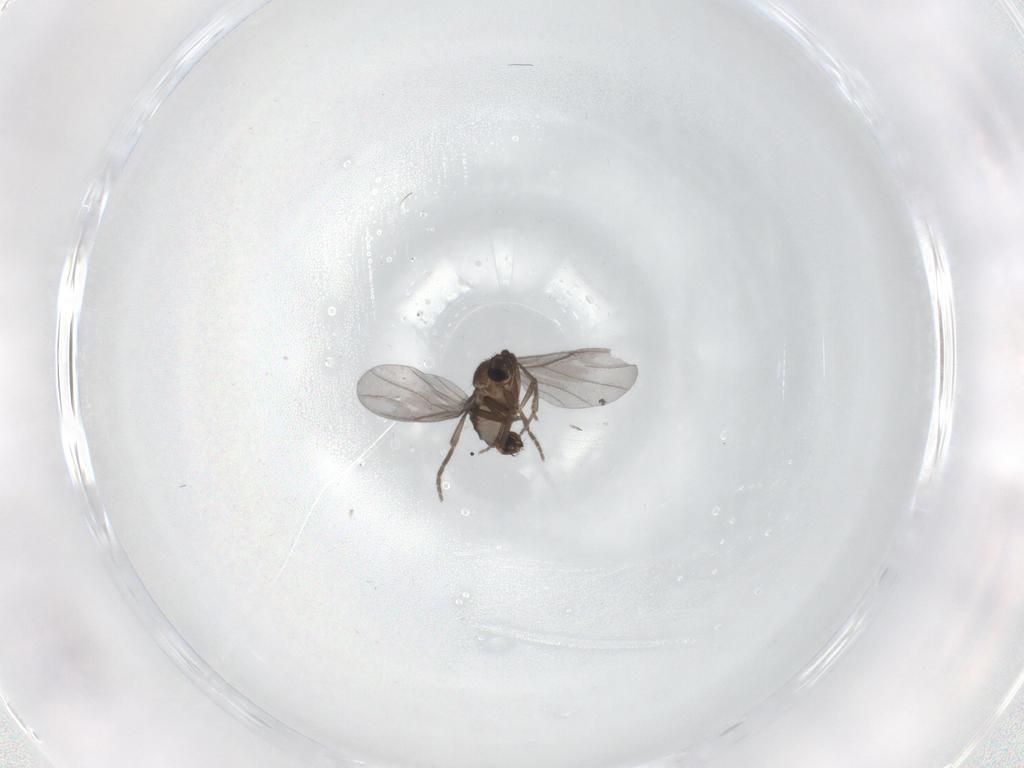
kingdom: Animalia
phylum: Arthropoda
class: Insecta
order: Diptera
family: Phoridae
